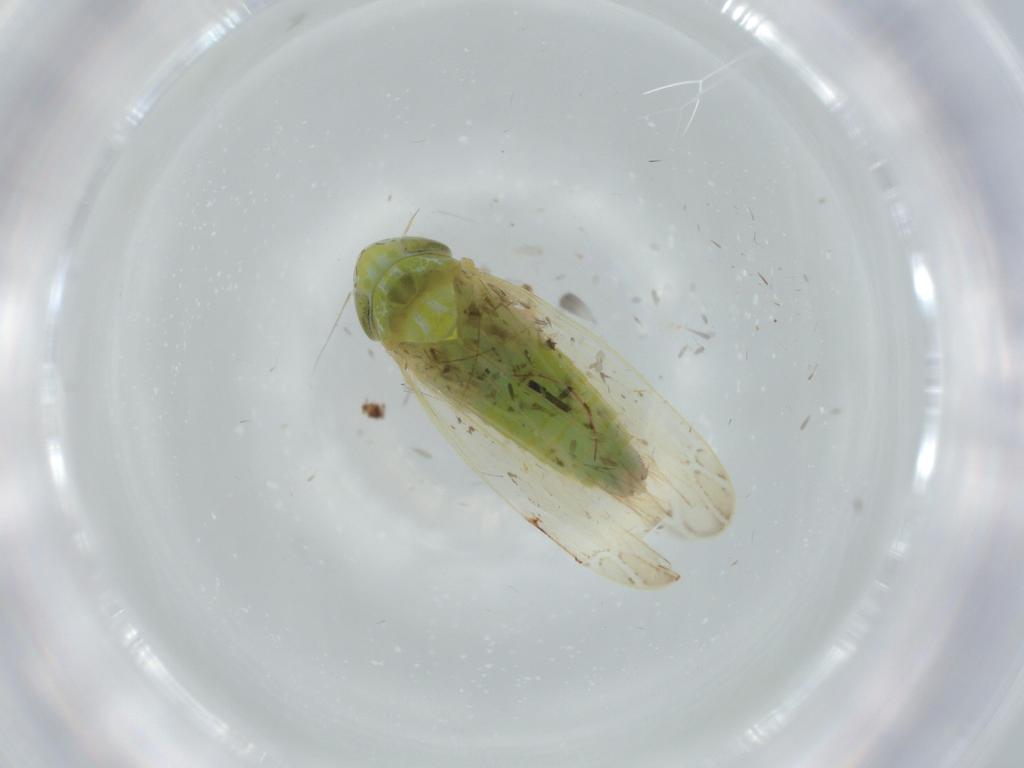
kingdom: Animalia
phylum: Arthropoda
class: Insecta
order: Hemiptera
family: Cicadellidae
